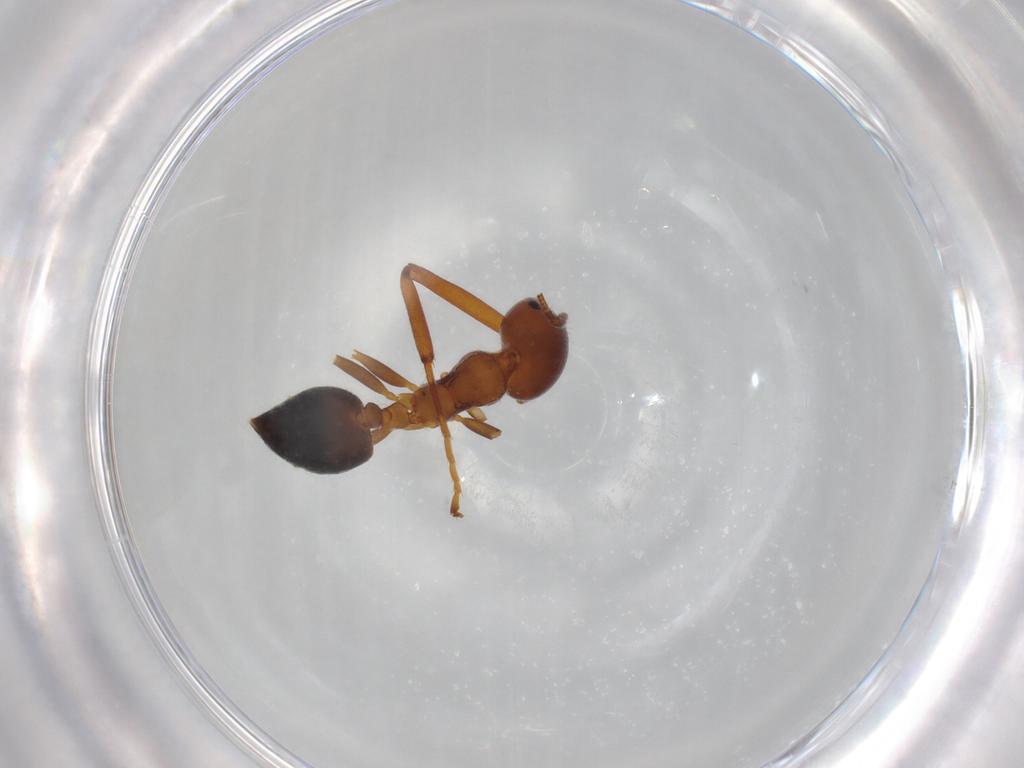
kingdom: Animalia
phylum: Arthropoda
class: Insecta
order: Hymenoptera
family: Formicidae
